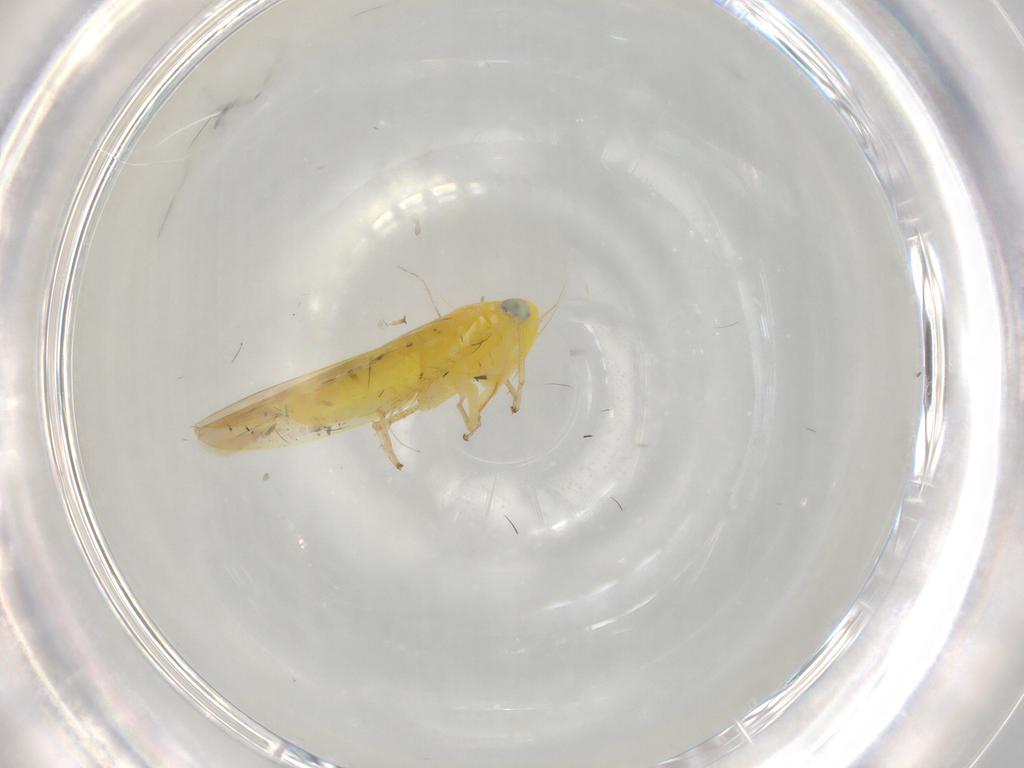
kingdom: Animalia
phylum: Arthropoda
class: Insecta
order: Hemiptera
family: Cicadellidae
